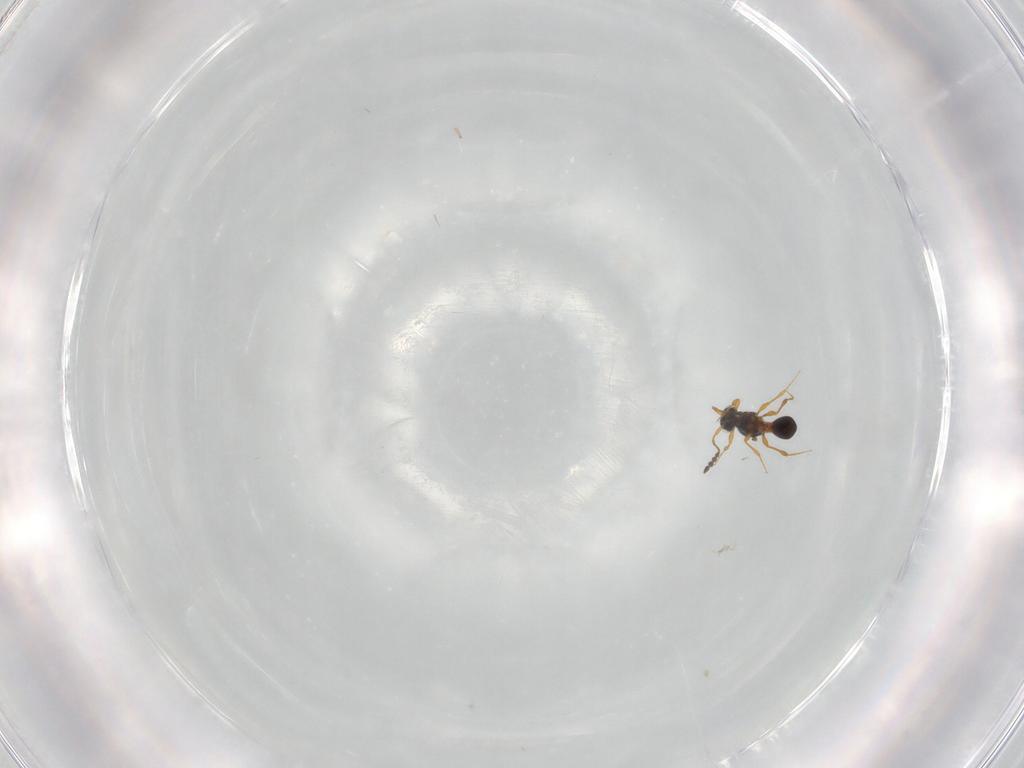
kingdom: Animalia
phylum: Arthropoda
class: Insecta
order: Hymenoptera
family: Platygastridae
